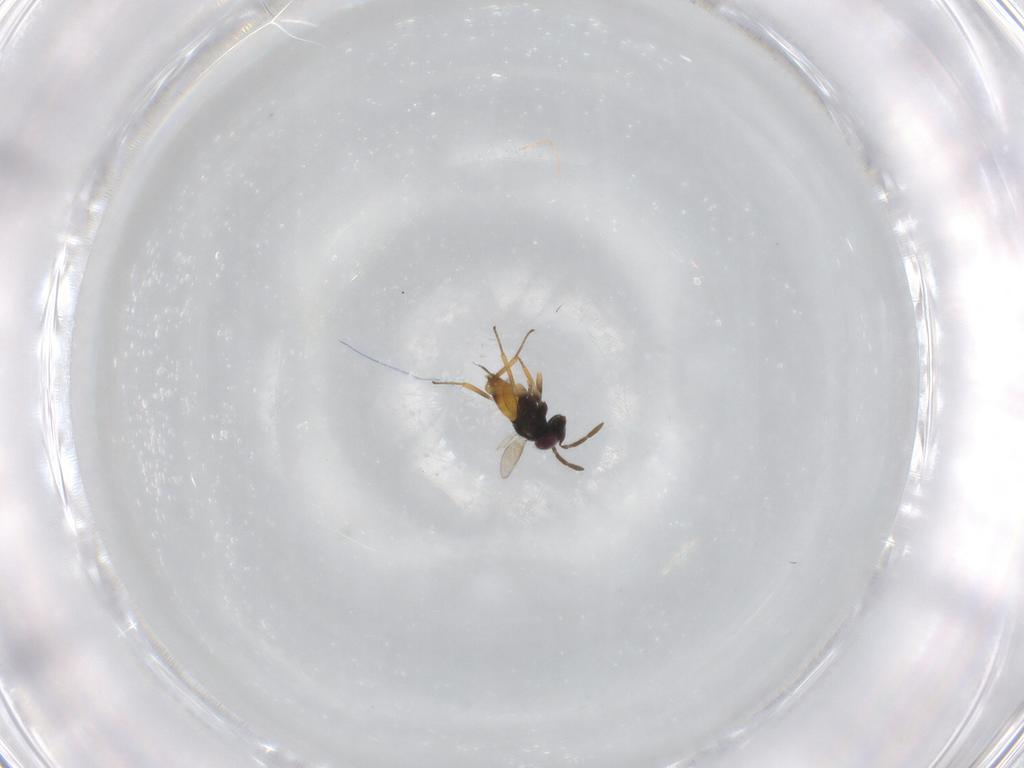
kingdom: Animalia
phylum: Arthropoda
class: Insecta
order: Hymenoptera
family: Aphelinidae
